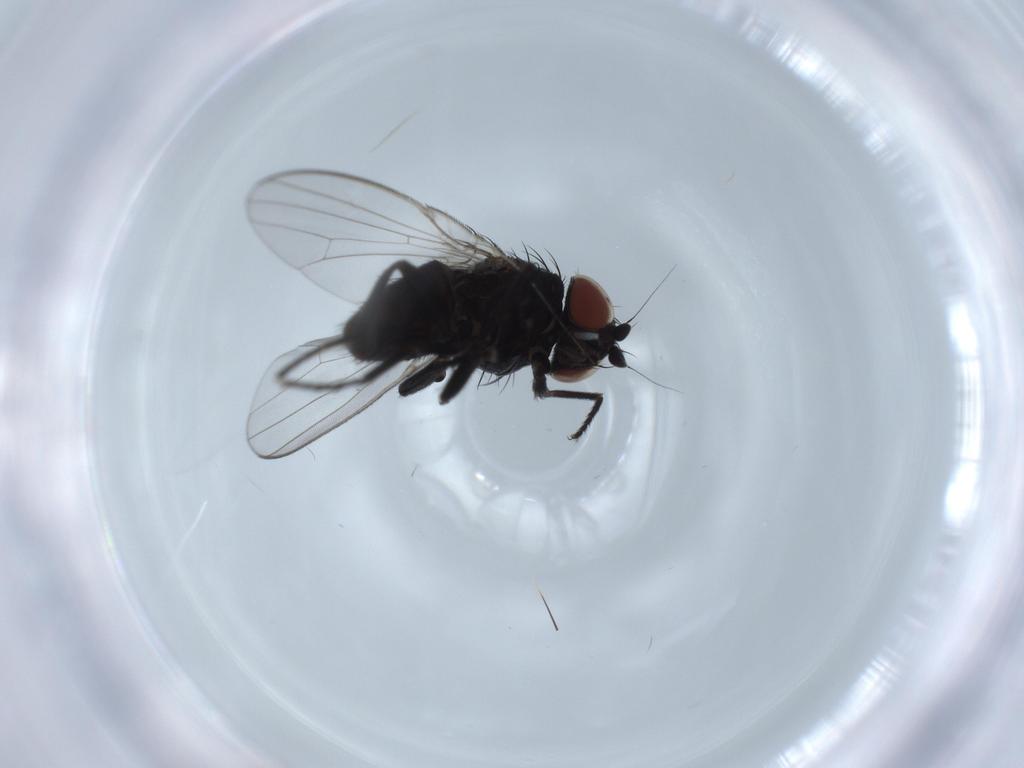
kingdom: Animalia
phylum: Arthropoda
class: Insecta
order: Diptera
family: Milichiidae
